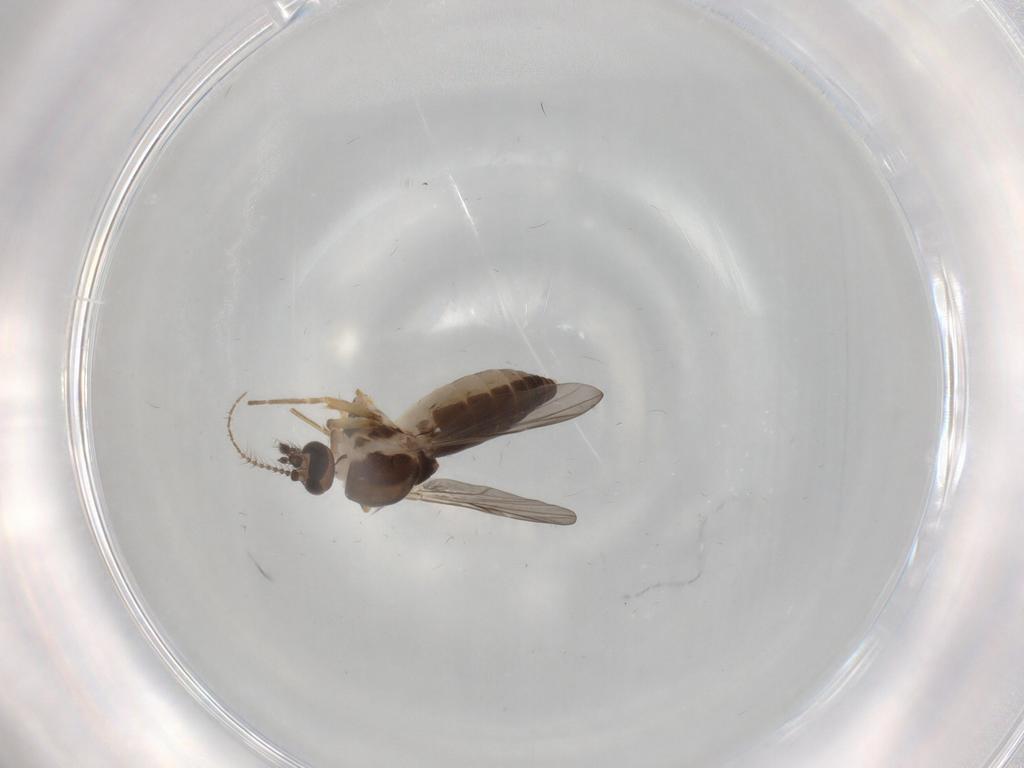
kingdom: Animalia
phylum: Arthropoda
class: Insecta
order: Diptera
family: Ceratopogonidae
